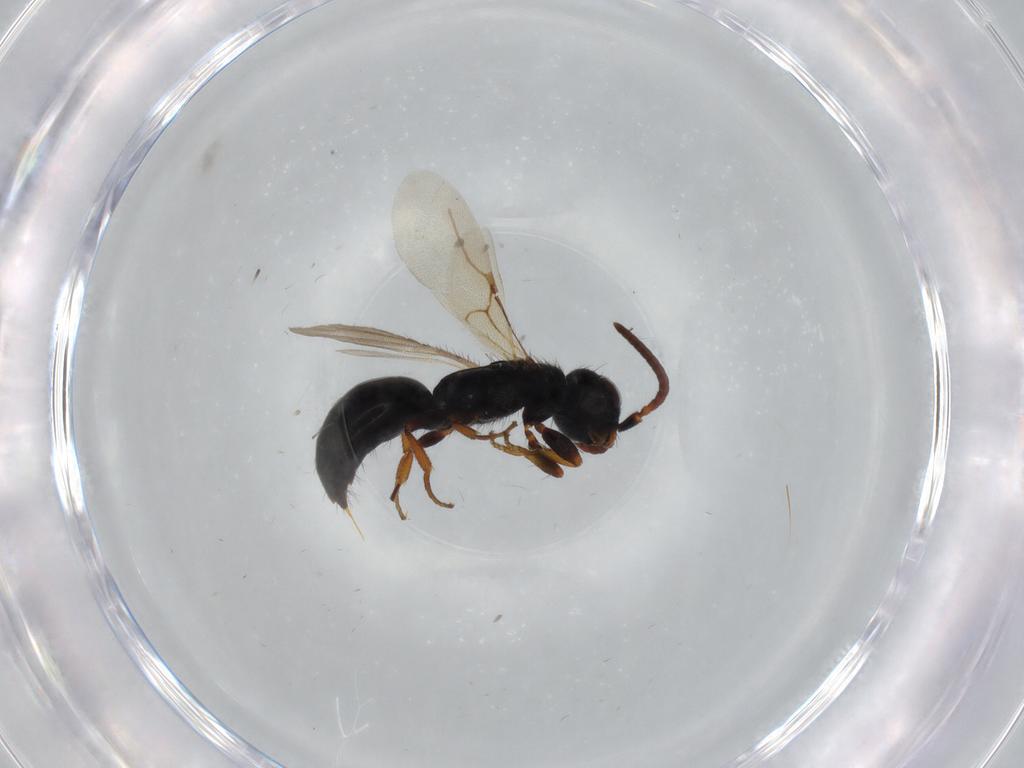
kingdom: Animalia
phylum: Arthropoda
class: Insecta
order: Hymenoptera
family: Bethylidae
